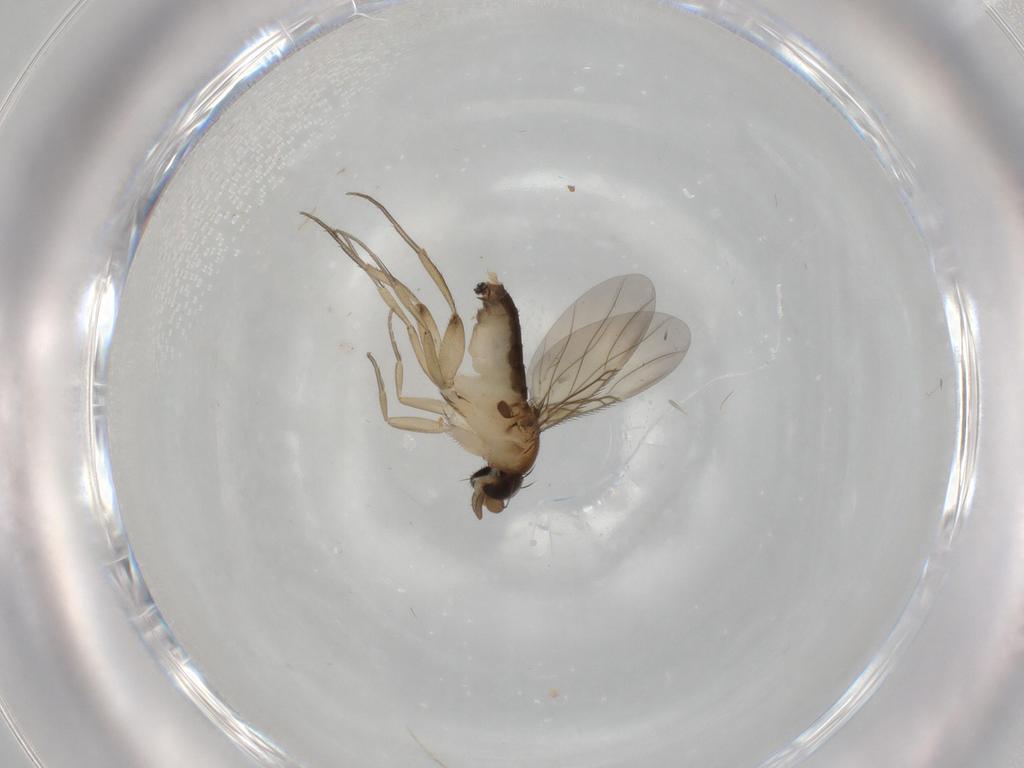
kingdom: Animalia
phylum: Arthropoda
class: Insecta
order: Diptera
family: Phoridae
